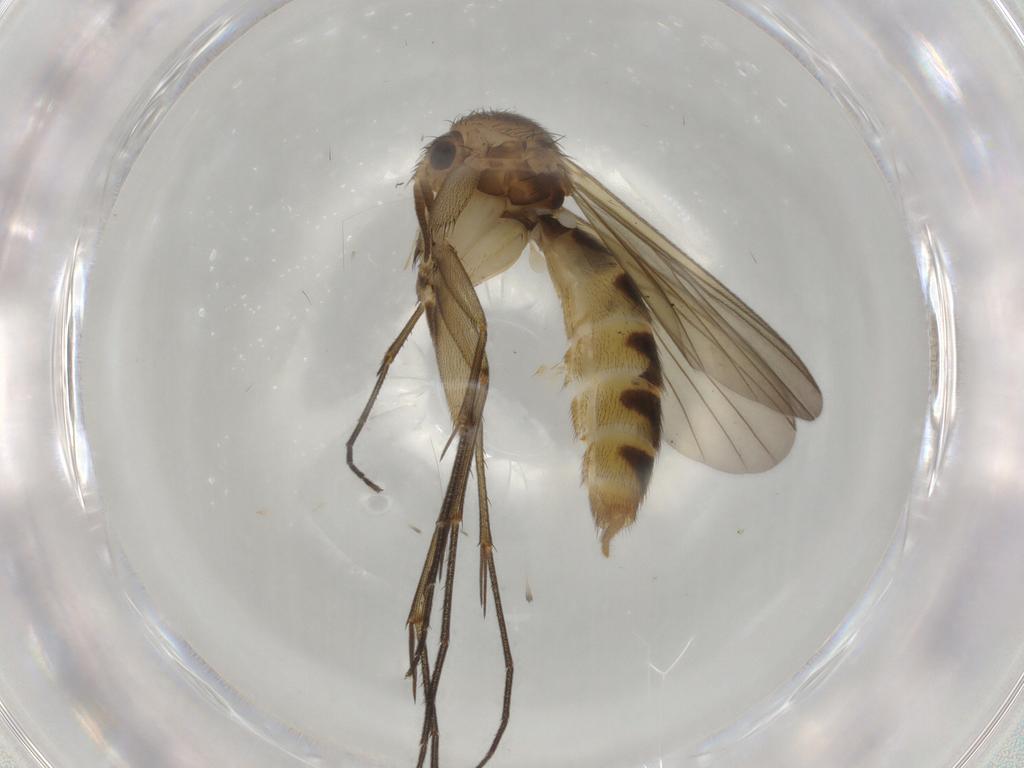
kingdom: Animalia
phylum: Arthropoda
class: Insecta
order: Diptera
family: Mycetophilidae
